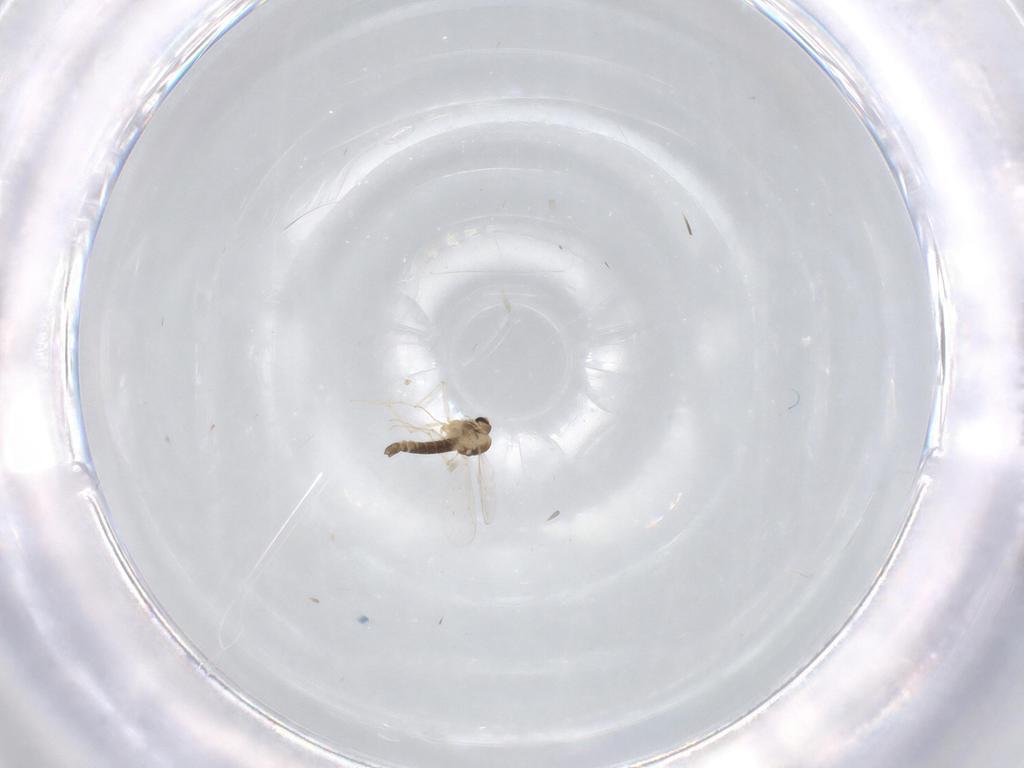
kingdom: Animalia
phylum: Arthropoda
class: Insecta
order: Diptera
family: Chironomidae
